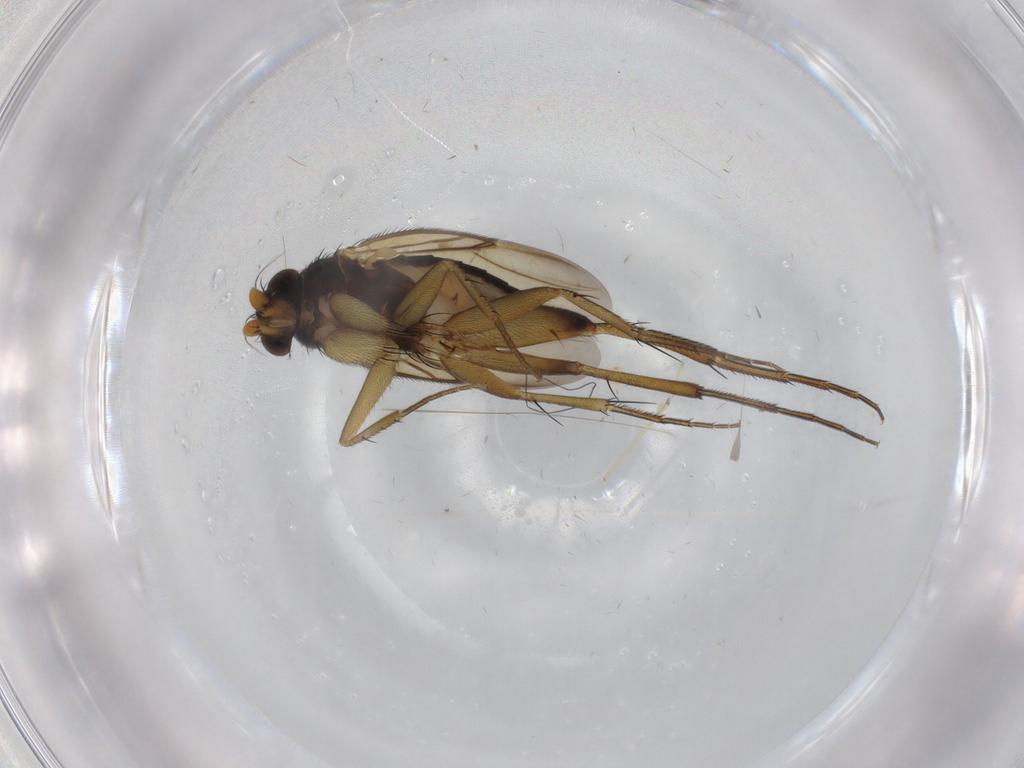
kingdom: Animalia
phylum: Arthropoda
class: Insecta
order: Diptera
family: Phoridae
